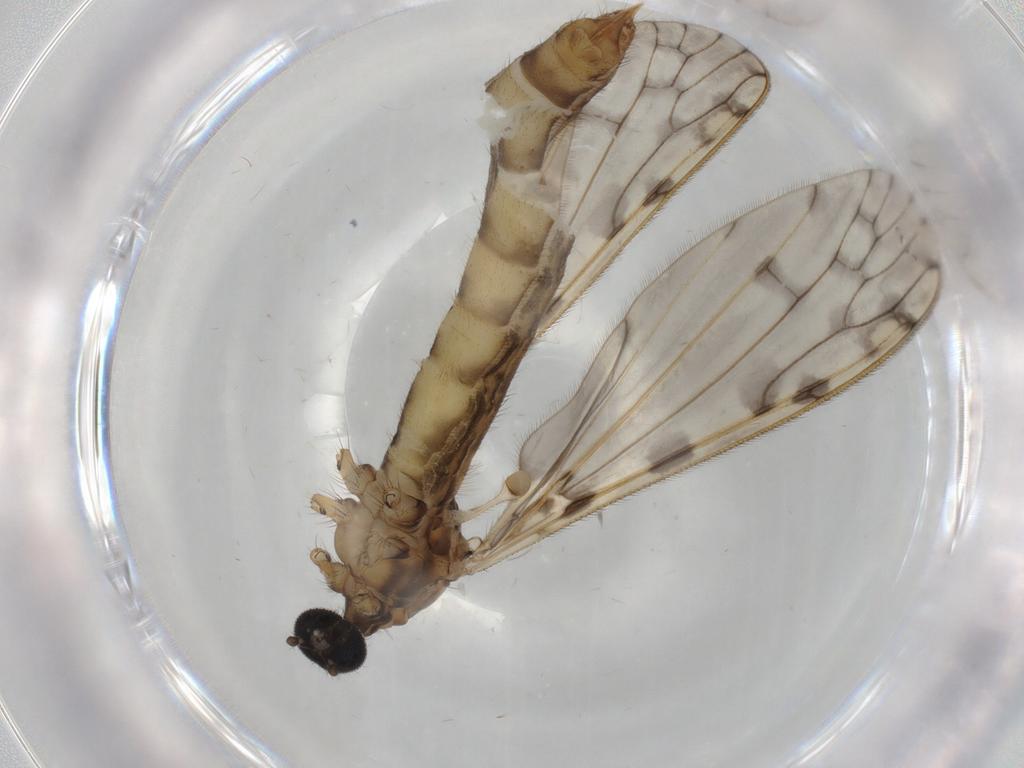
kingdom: Animalia
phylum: Arthropoda
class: Insecta
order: Diptera
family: Limoniidae
